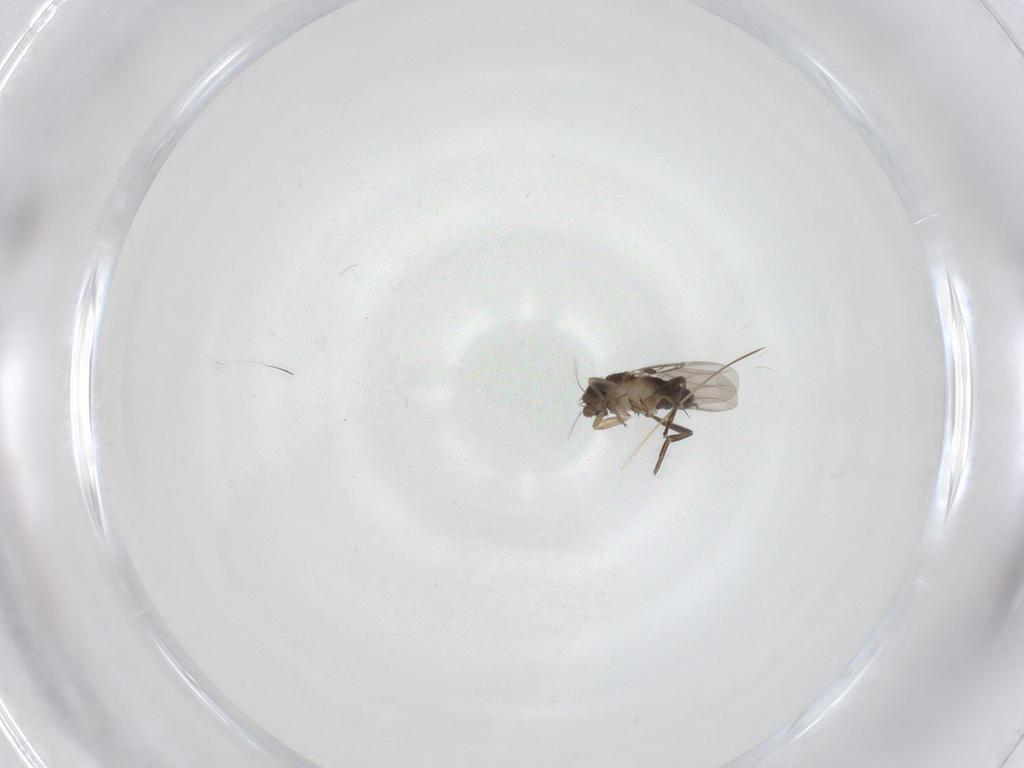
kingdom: Animalia
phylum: Arthropoda
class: Insecta
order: Diptera
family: Phoridae
